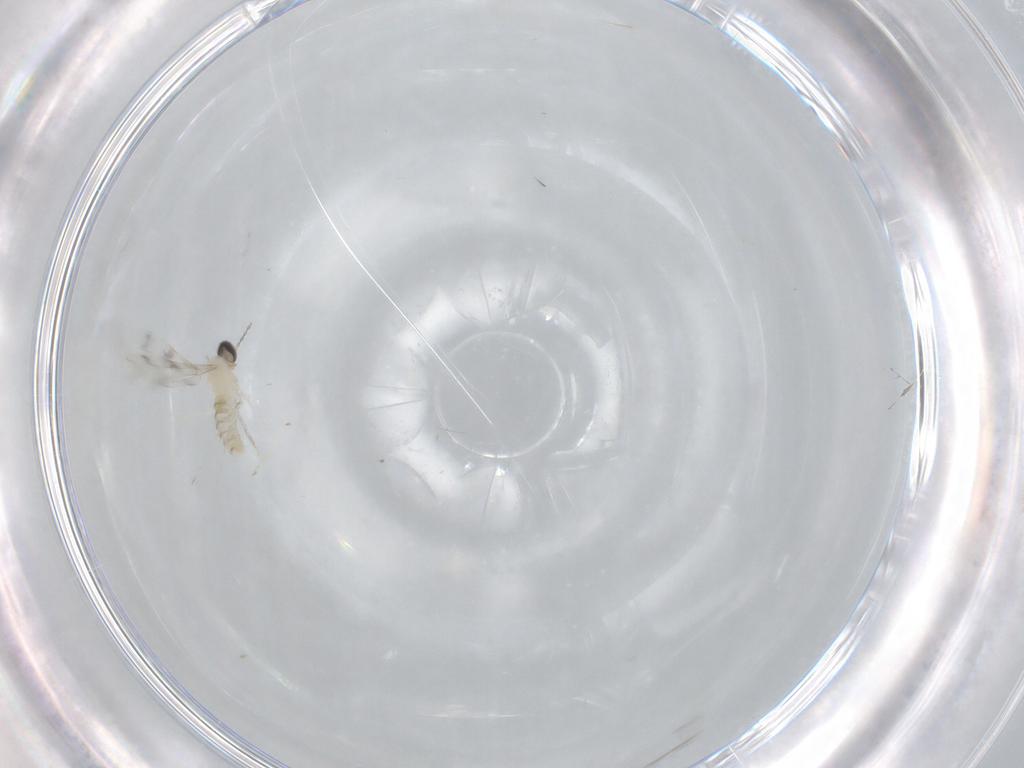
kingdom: Animalia
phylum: Arthropoda
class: Insecta
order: Diptera
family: Cecidomyiidae
